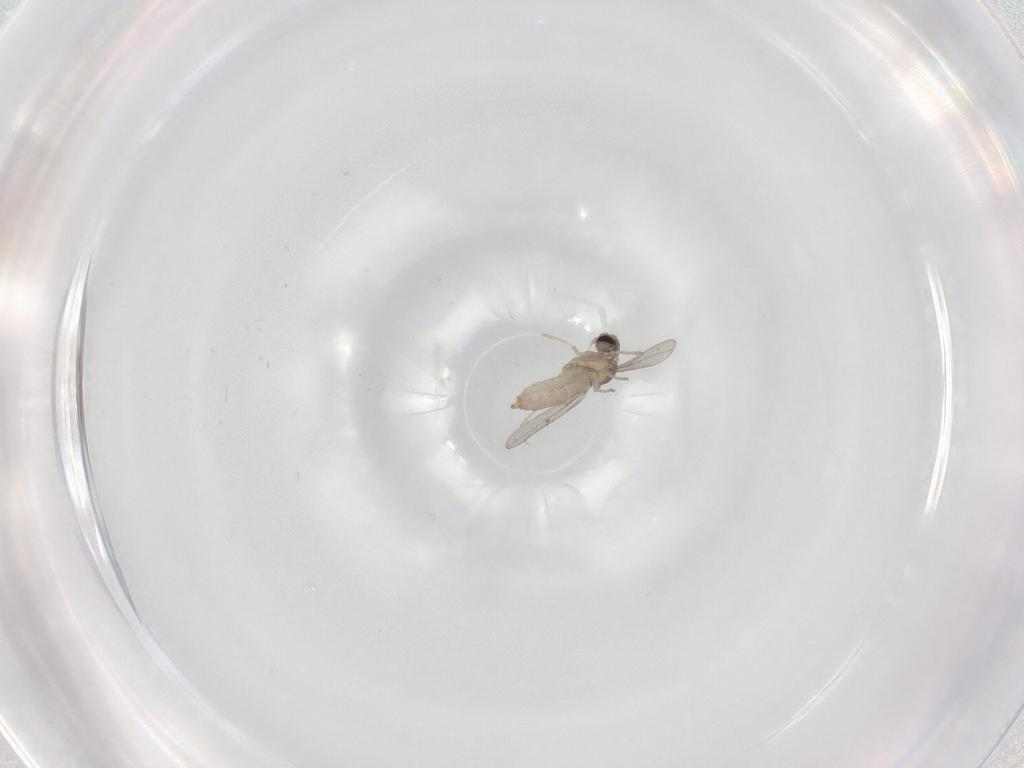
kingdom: Animalia
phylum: Arthropoda
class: Insecta
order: Diptera
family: Cecidomyiidae
